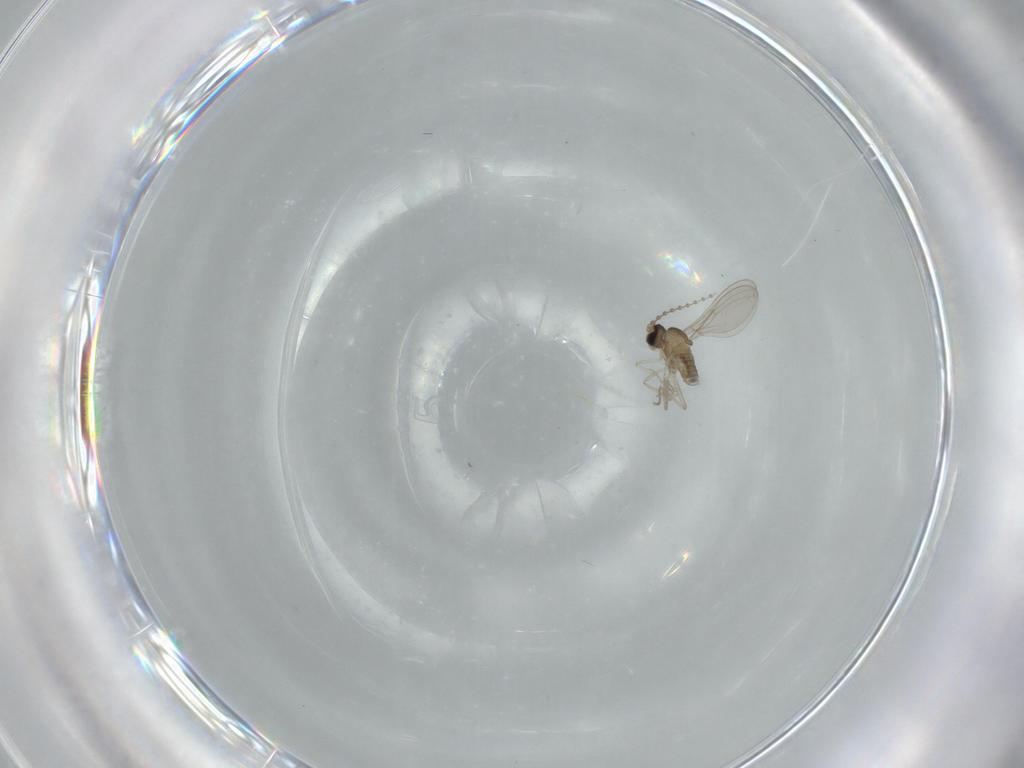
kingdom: Animalia
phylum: Arthropoda
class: Insecta
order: Diptera
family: Cecidomyiidae
